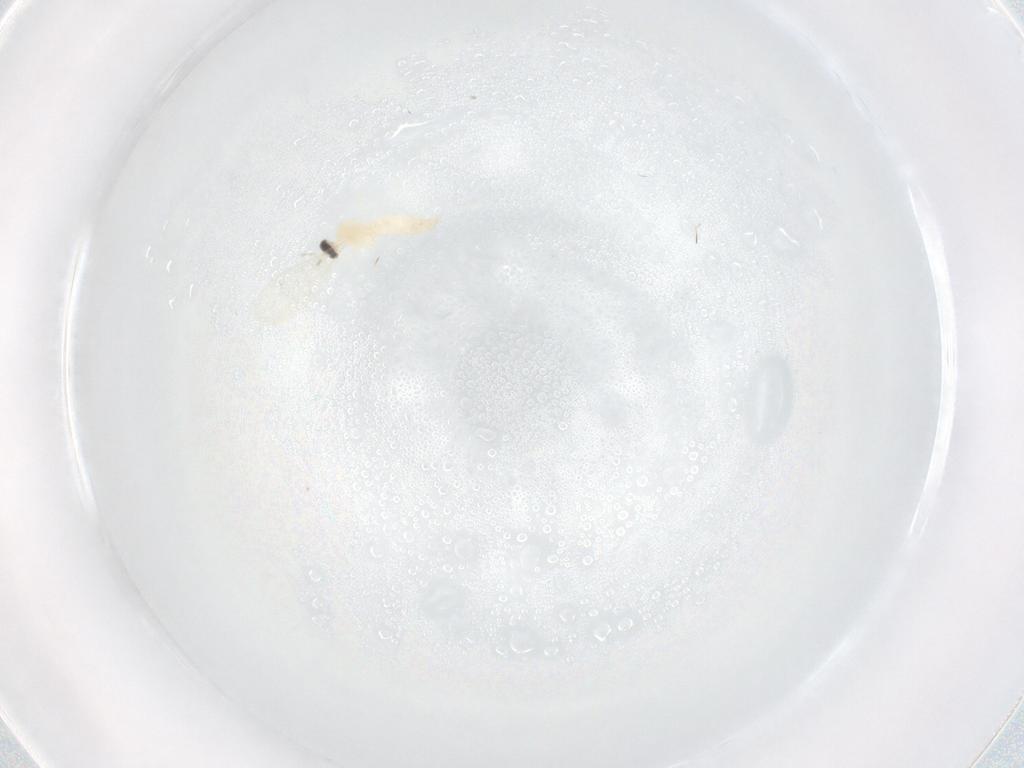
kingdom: Animalia
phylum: Arthropoda
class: Insecta
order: Diptera
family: Cecidomyiidae
